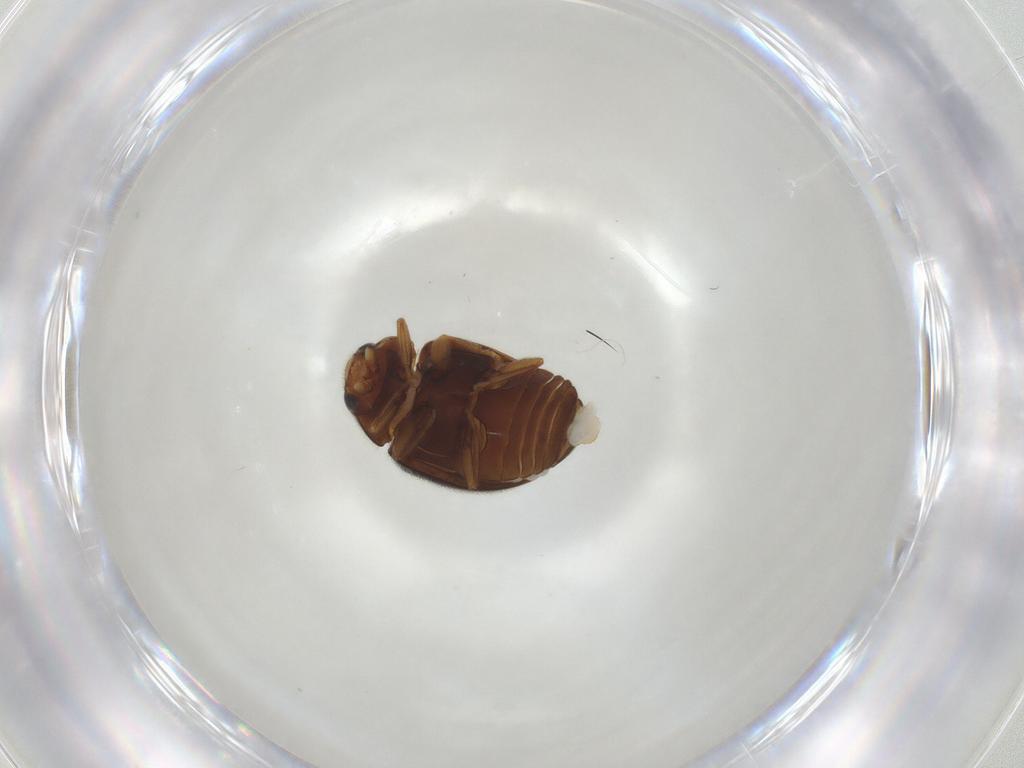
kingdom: Animalia
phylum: Arthropoda
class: Insecta
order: Coleoptera
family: Coccinellidae
